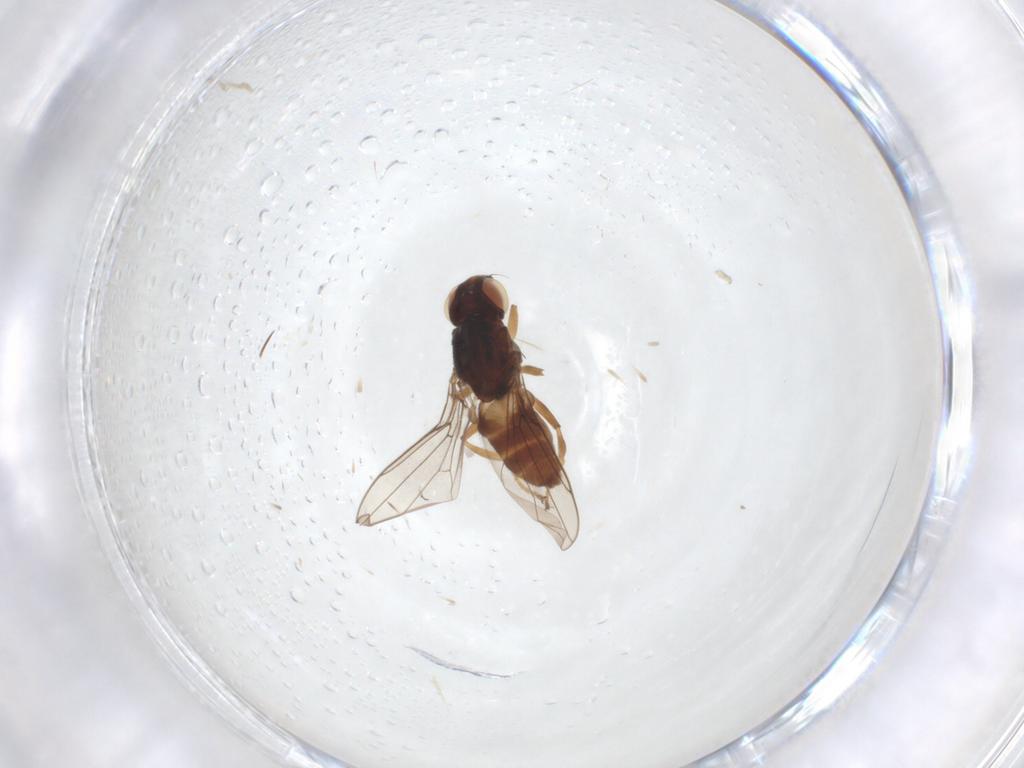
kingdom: Animalia
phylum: Arthropoda
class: Insecta
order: Diptera
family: Chloropidae
